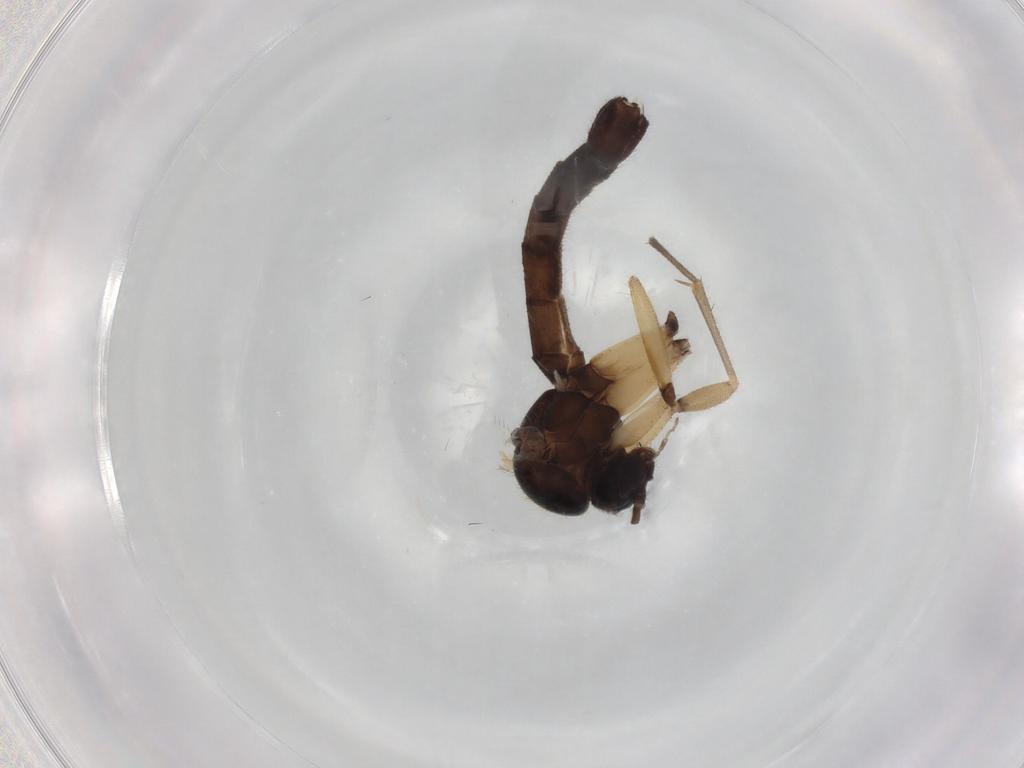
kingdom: Animalia
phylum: Arthropoda
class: Insecta
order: Diptera
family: Mycetophilidae
